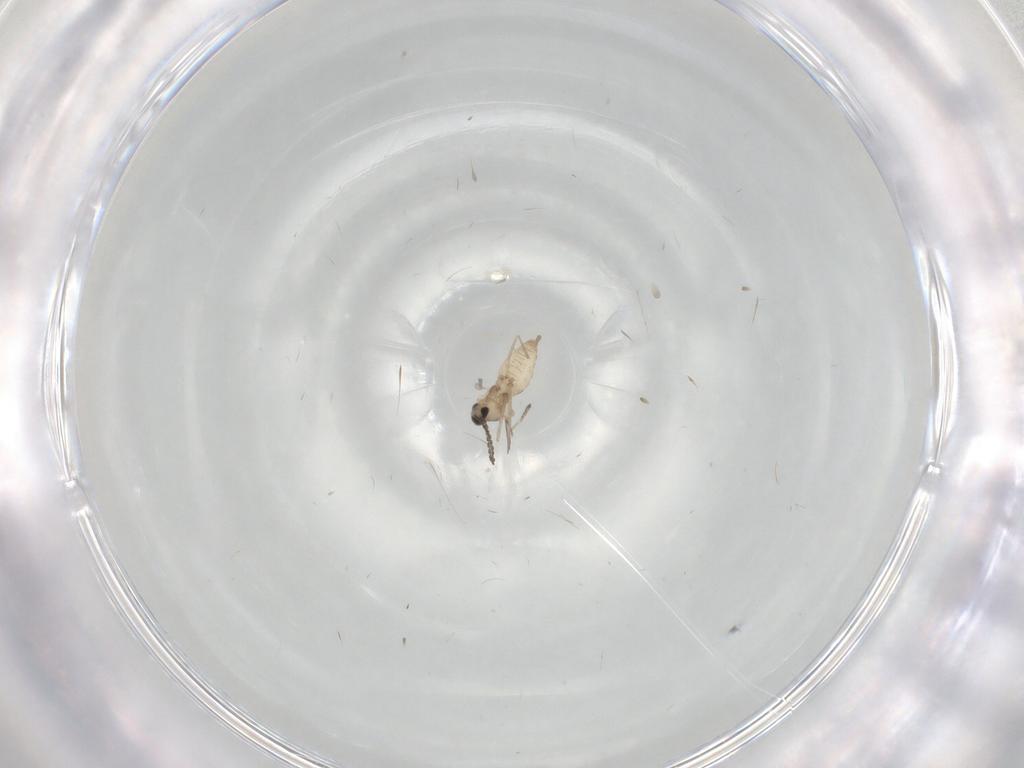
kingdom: Animalia
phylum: Arthropoda
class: Insecta
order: Diptera
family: Cecidomyiidae
